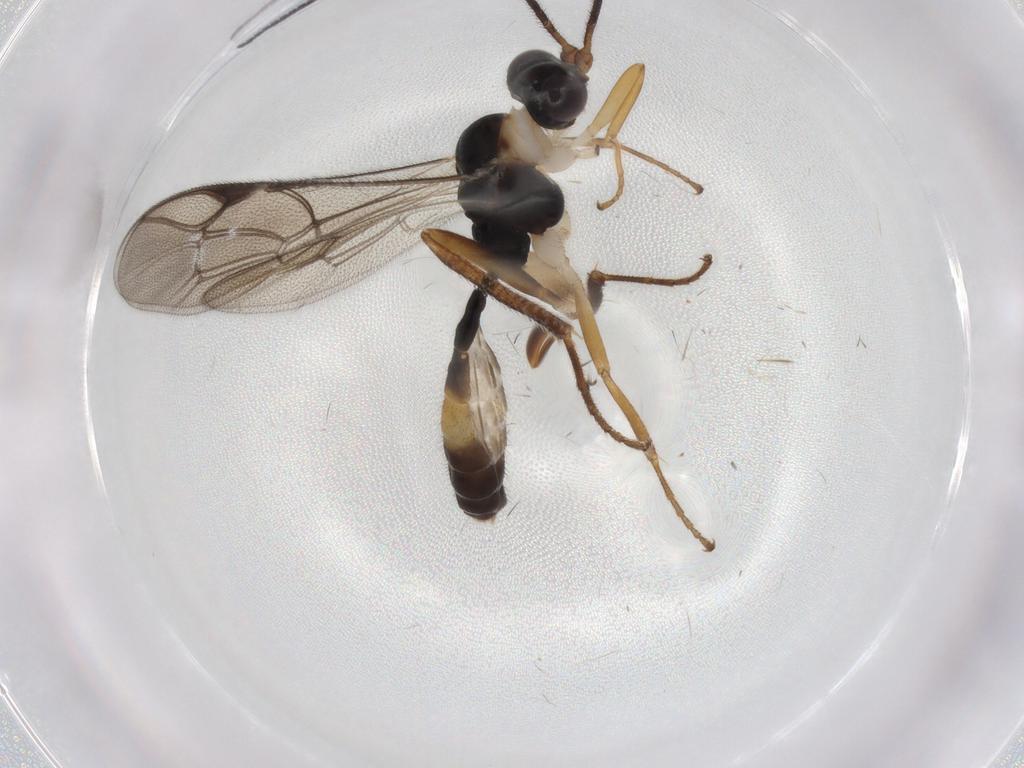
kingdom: Animalia
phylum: Arthropoda
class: Insecta
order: Hymenoptera
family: Ichneumonidae
